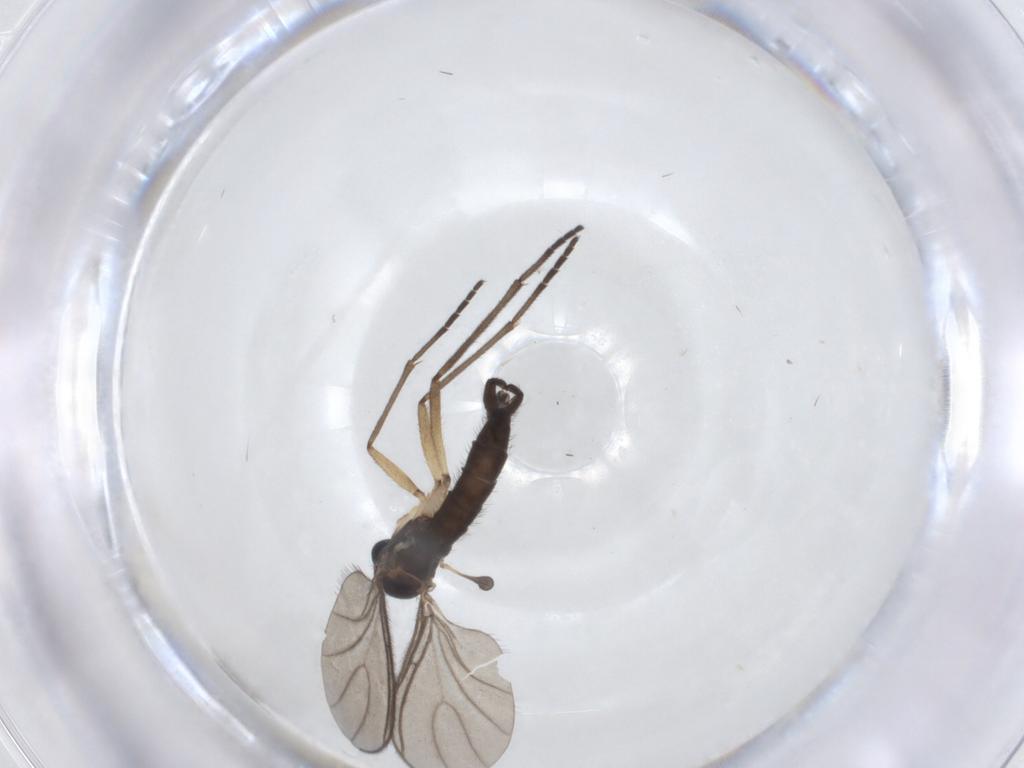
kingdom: Animalia
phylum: Arthropoda
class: Insecta
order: Diptera
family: Sciaridae
